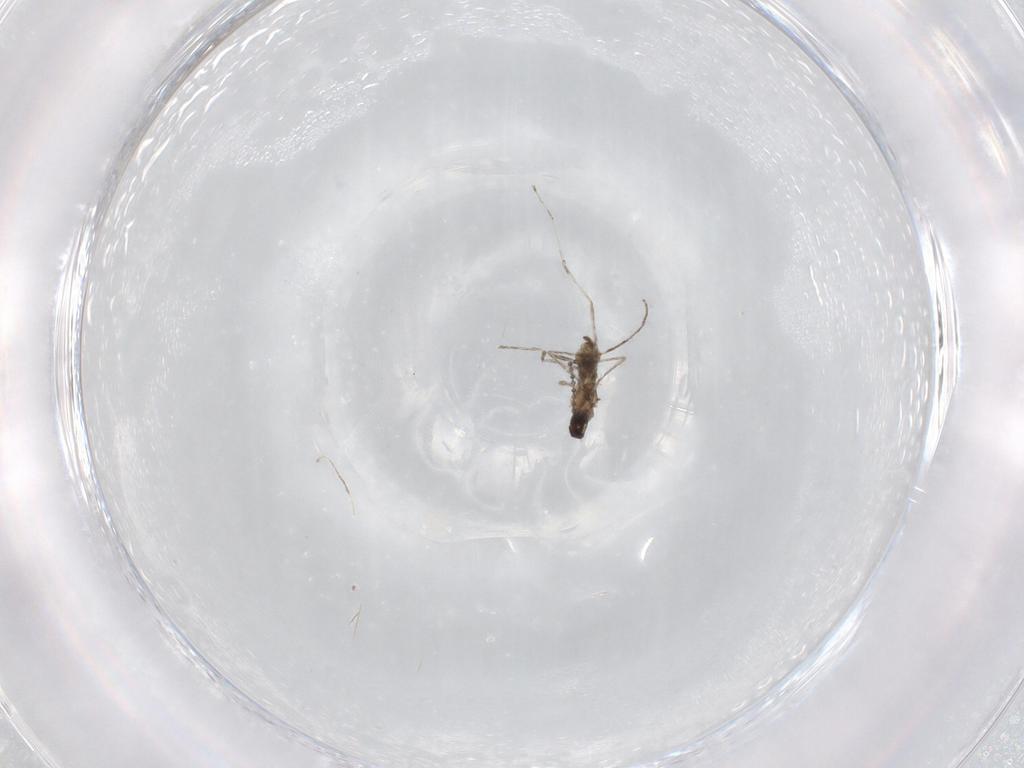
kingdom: Animalia
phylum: Arthropoda
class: Insecta
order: Diptera
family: Cecidomyiidae
